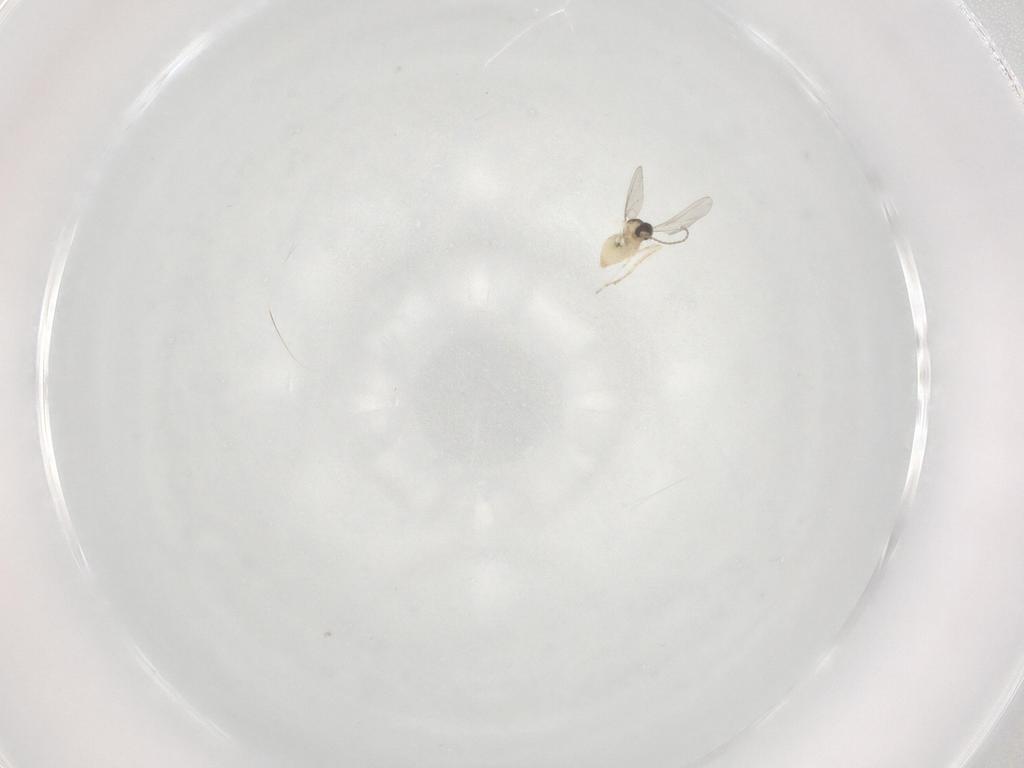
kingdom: Animalia
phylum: Arthropoda
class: Insecta
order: Diptera
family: Cecidomyiidae
